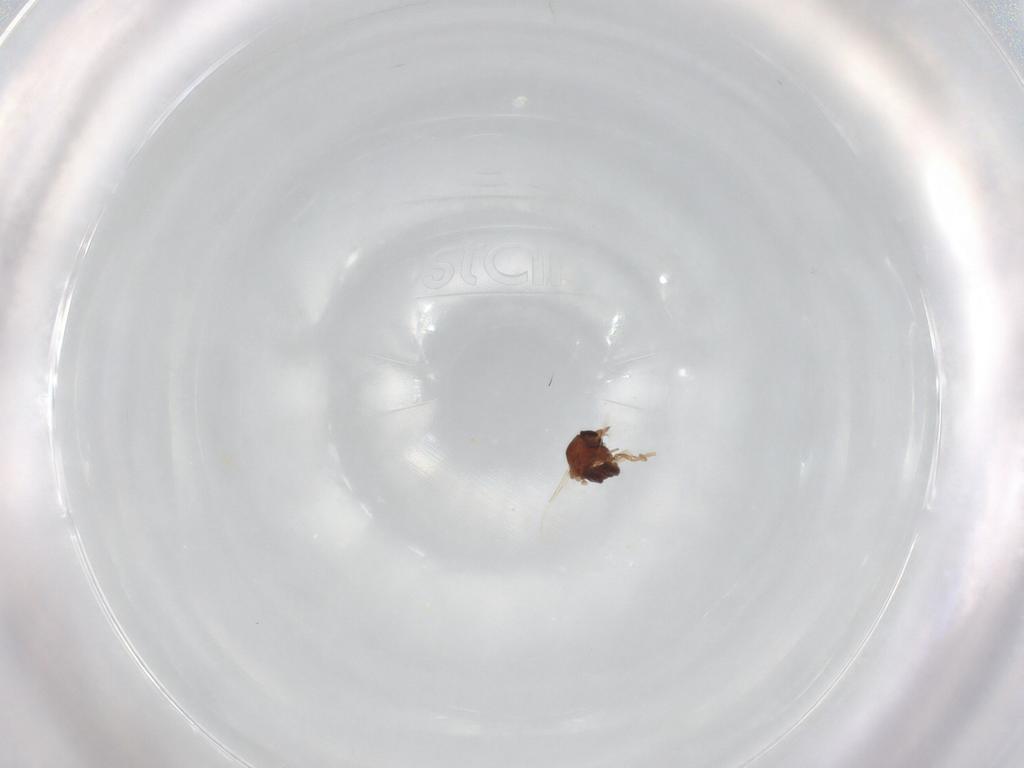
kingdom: Animalia
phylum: Arthropoda
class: Insecta
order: Diptera
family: Ceratopogonidae
